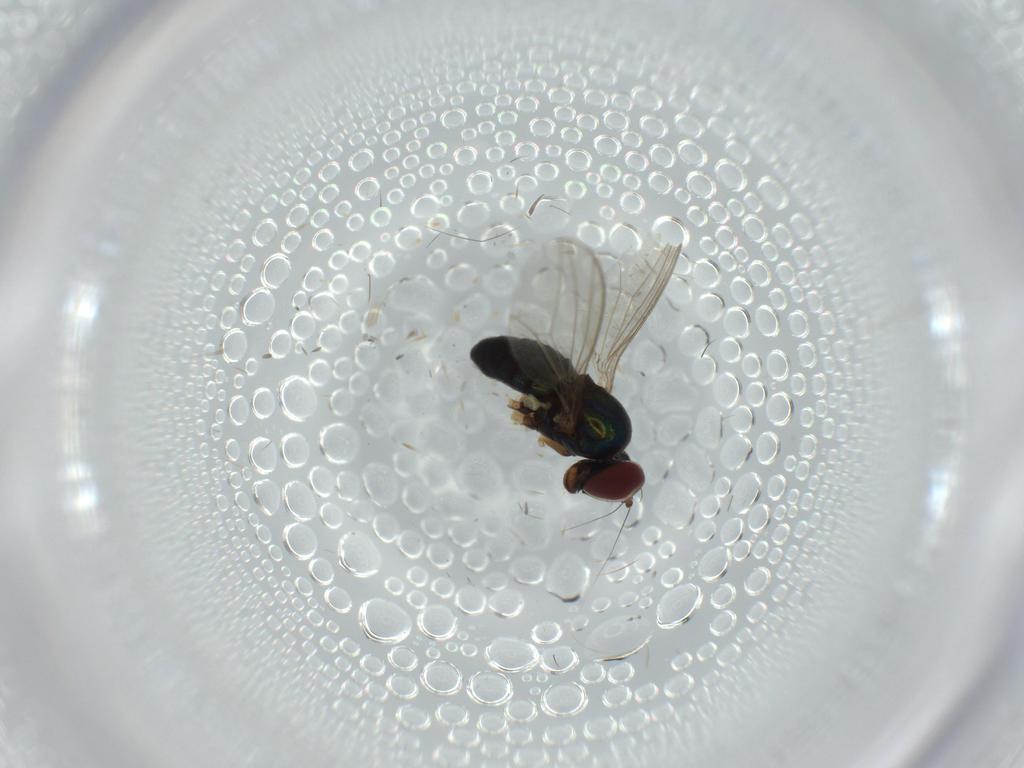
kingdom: Animalia
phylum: Arthropoda
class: Insecta
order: Diptera
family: Dolichopodidae
